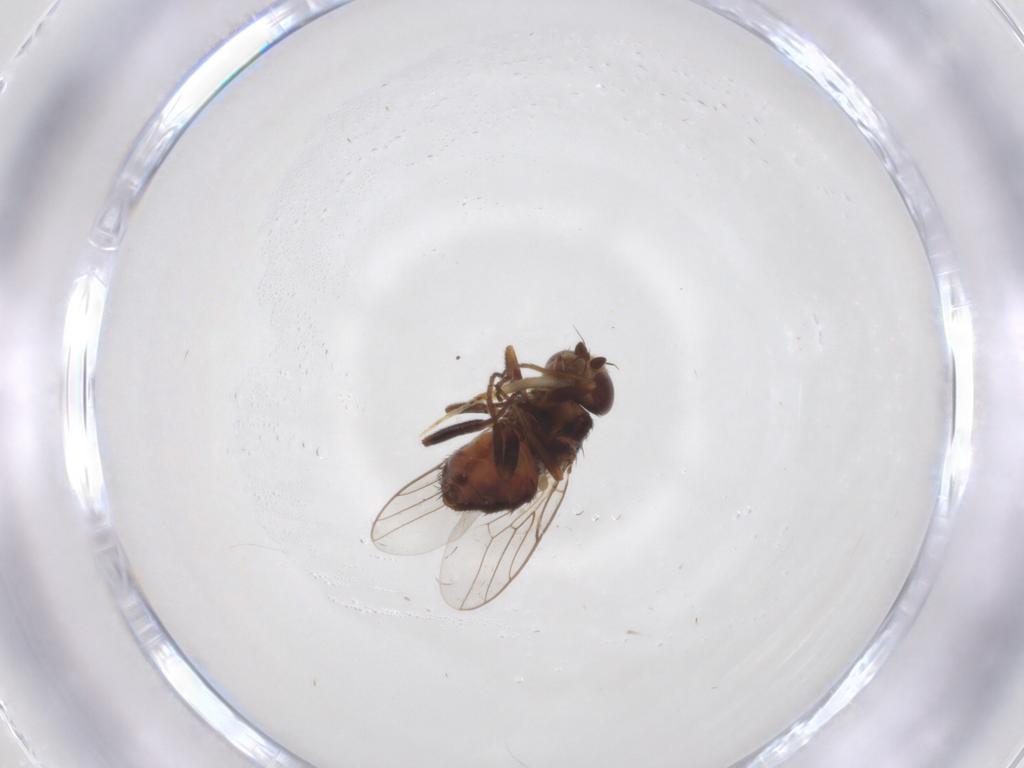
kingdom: Animalia
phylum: Arthropoda
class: Insecta
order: Diptera
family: Chloropidae
